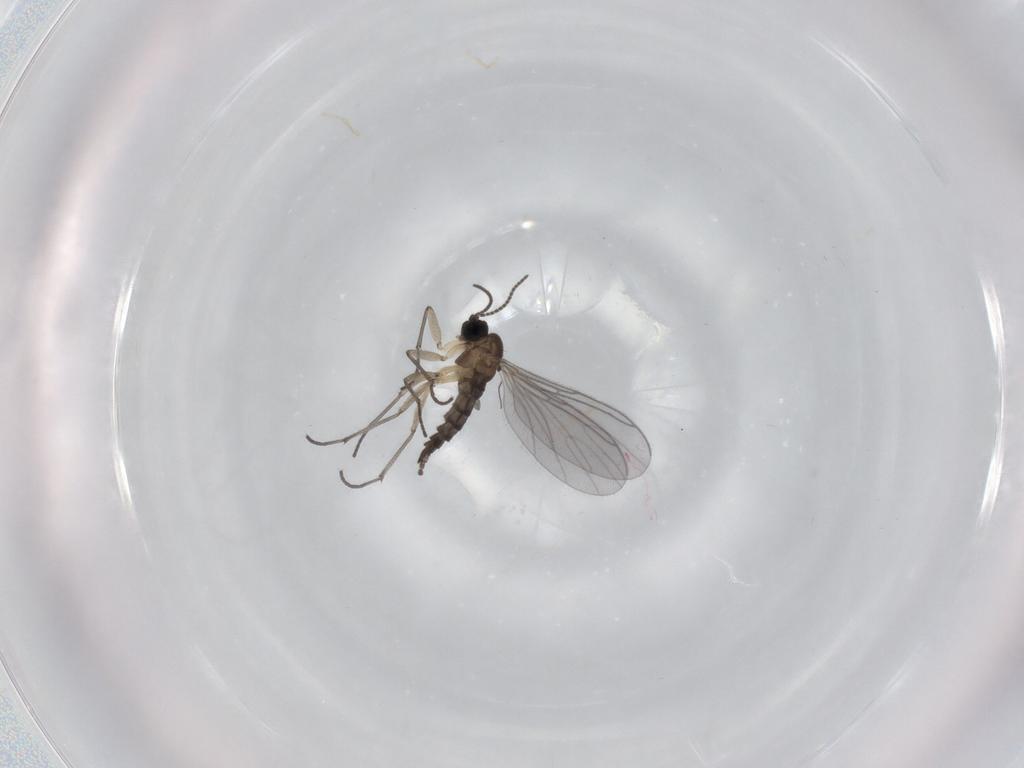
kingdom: Animalia
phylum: Arthropoda
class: Insecta
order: Diptera
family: Sciaridae
